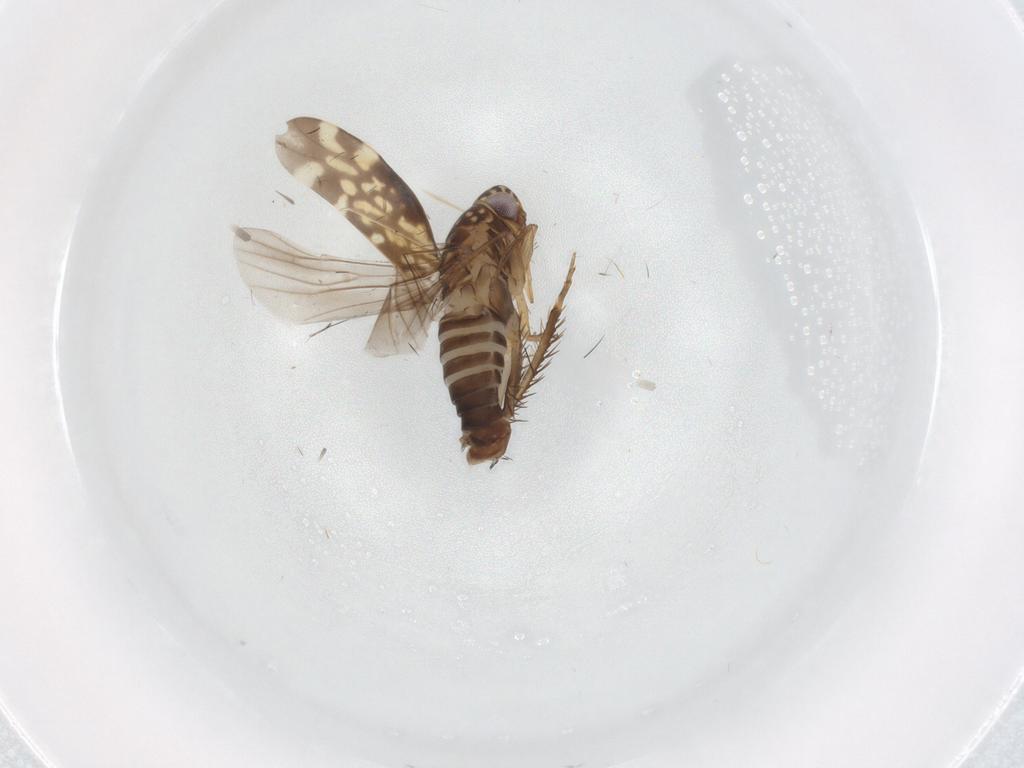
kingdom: Animalia
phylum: Arthropoda
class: Insecta
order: Hemiptera
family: Cicadellidae
